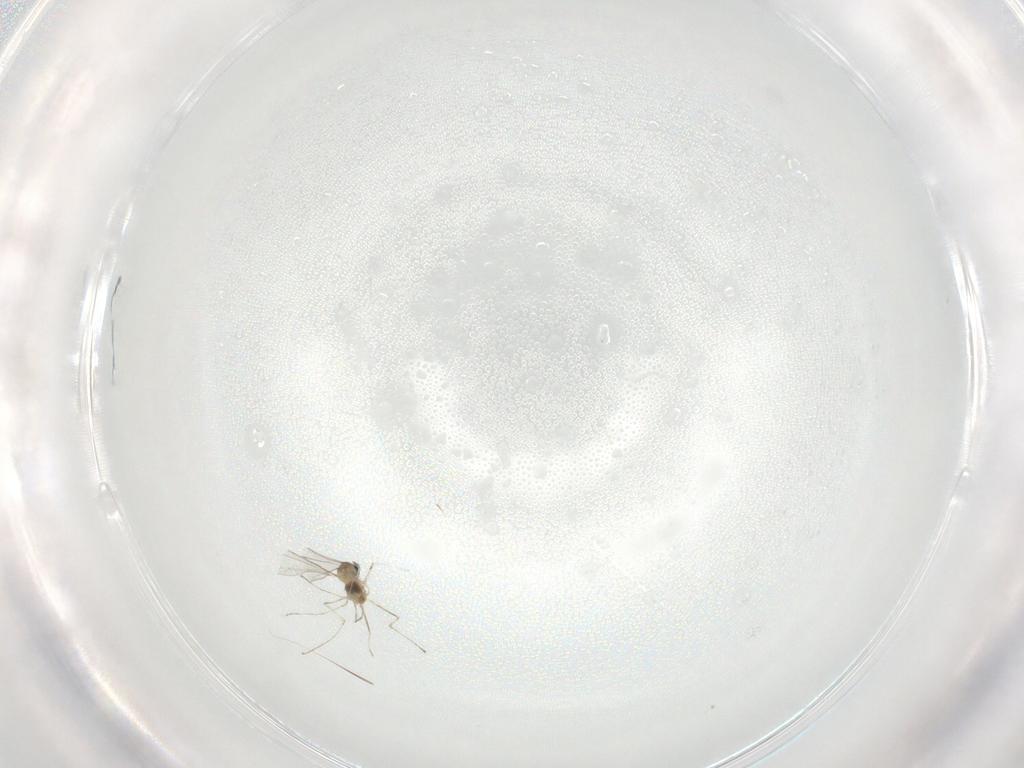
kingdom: Animalia
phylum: Arthropoda
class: Insecta
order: Diptera
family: Cecidomyiidae
